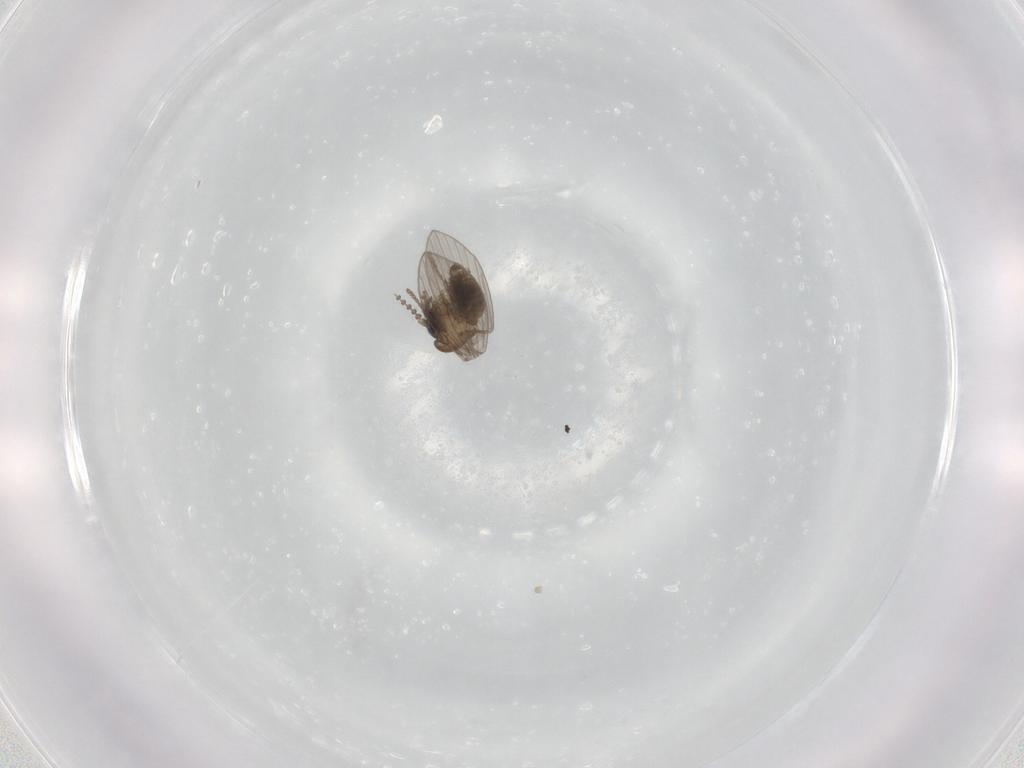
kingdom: Animalia
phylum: Arthropoda
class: Insecta
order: Diptera
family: Psychodidae
